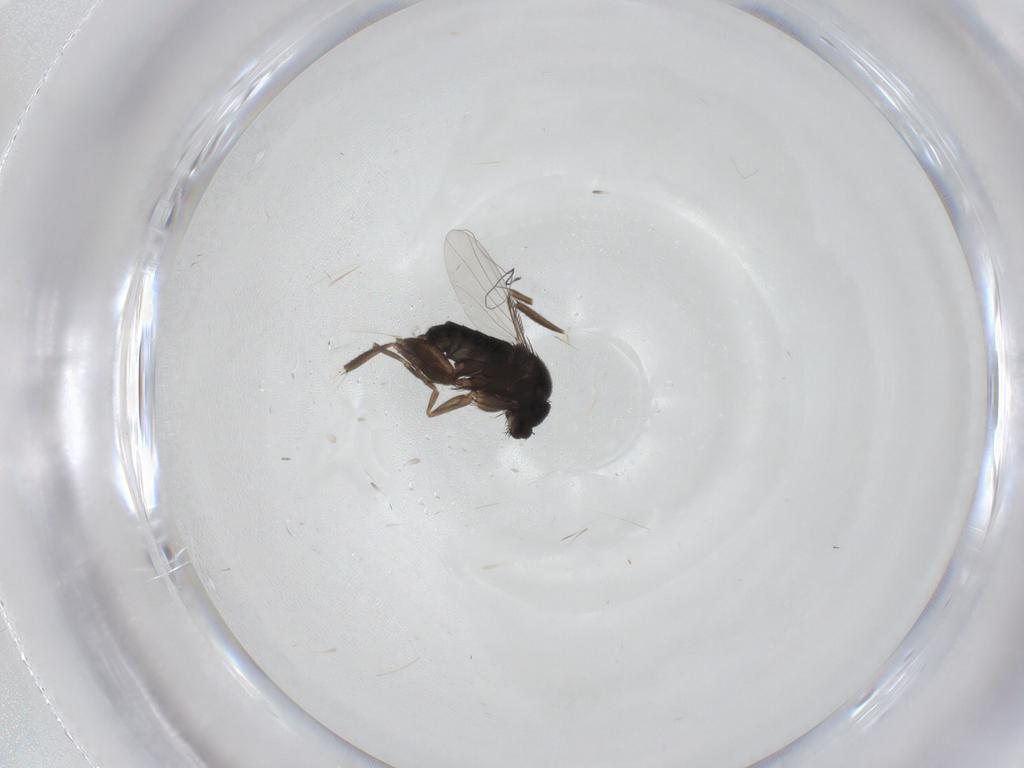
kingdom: Animalia
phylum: Arthropoda
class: Insecta
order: Diptera
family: Phoridae
